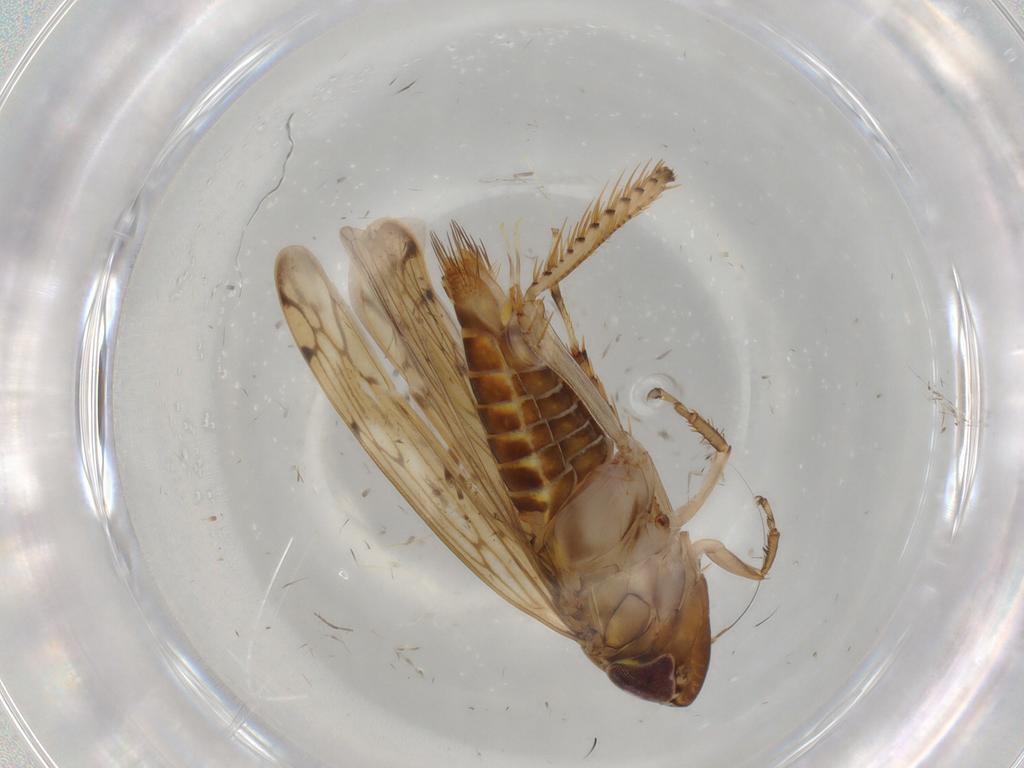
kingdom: Animalia
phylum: Arthropoda
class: Insecta
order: Hemiptera
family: Cicadellidae
